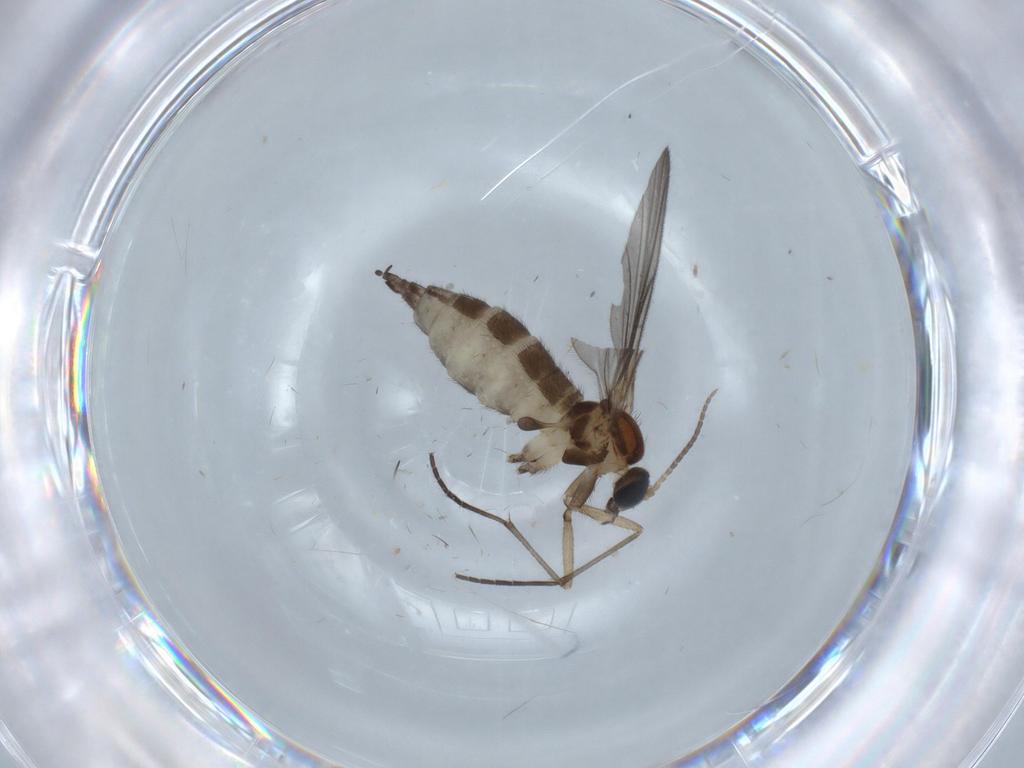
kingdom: Animalia
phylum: Arthropoda
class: Insecta
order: Diptera
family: Sciaridae
